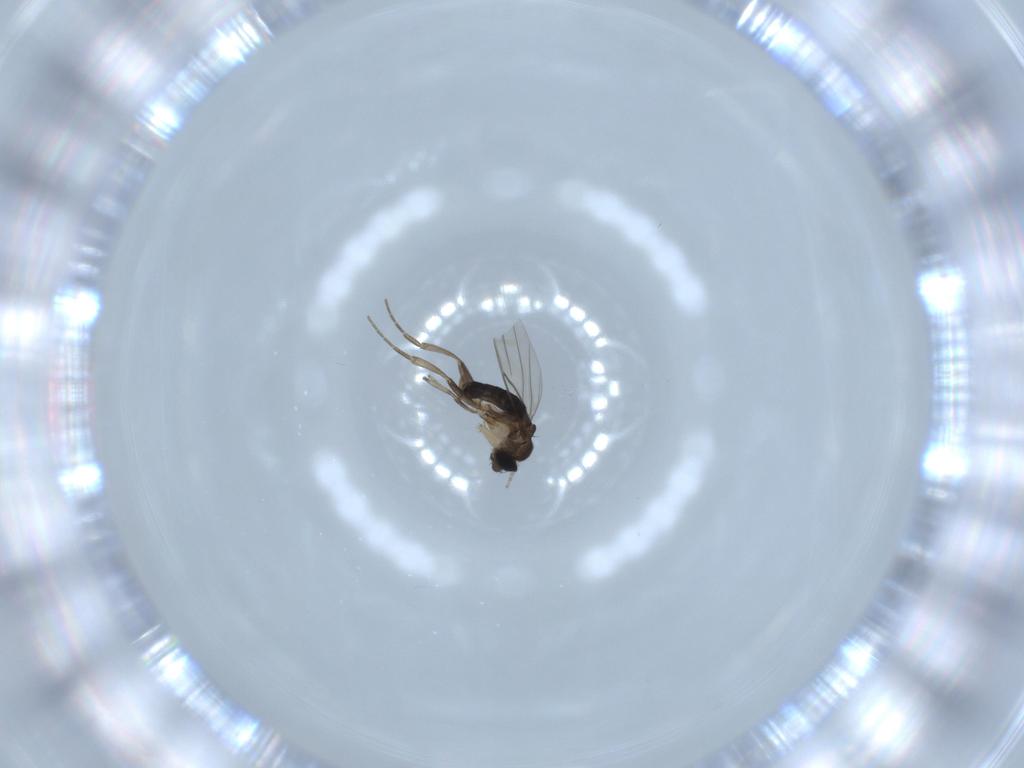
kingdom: Animalia
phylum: Arthropoda
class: Insecta
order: Diptera
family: Phoridae
